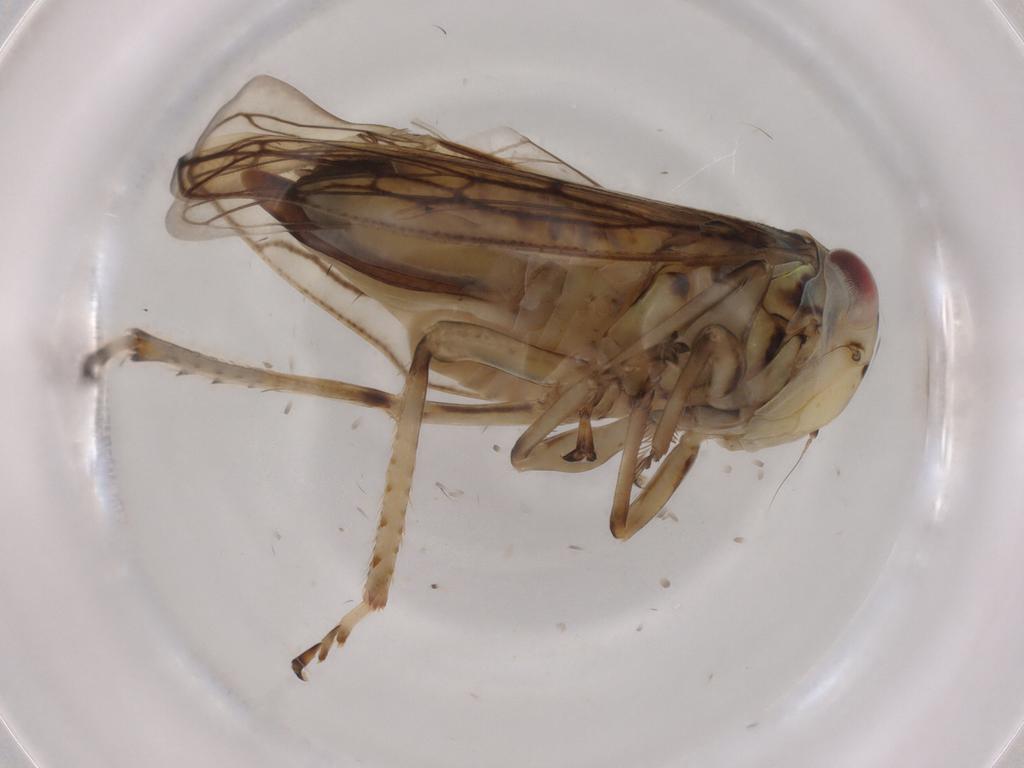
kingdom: Animalia
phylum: Arthropoda
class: Insecta
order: Hemiptera
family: Cicadellidae
